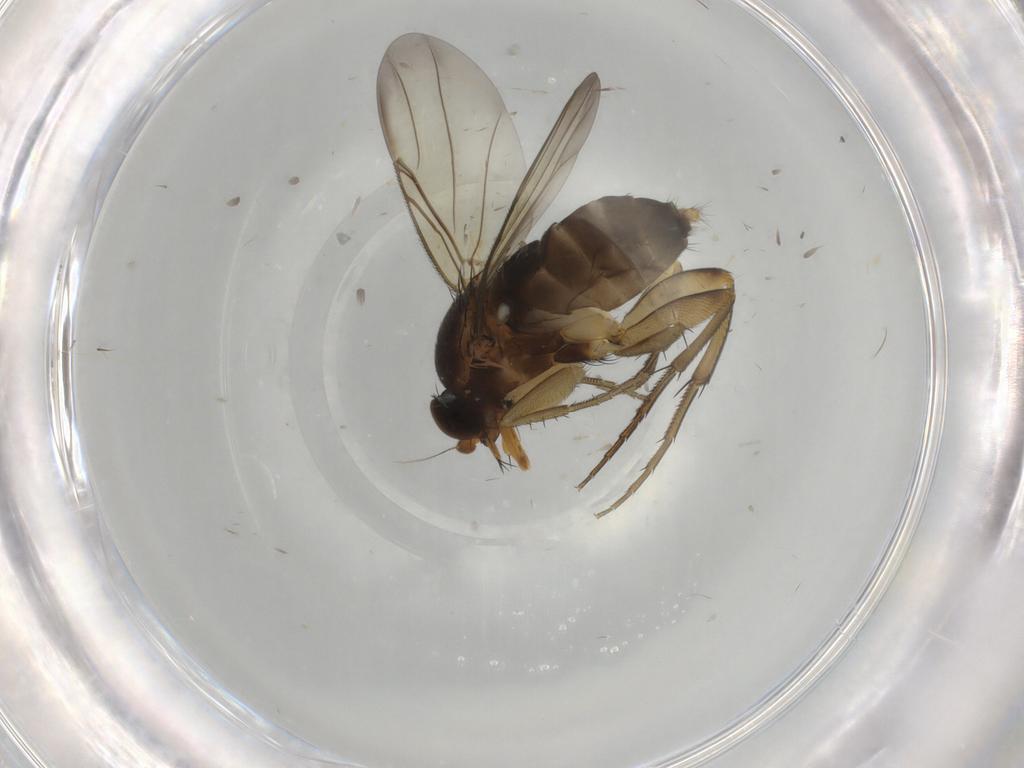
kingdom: Animalia
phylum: Arthropoda
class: Insecta
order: Diptera
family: Phoridae
